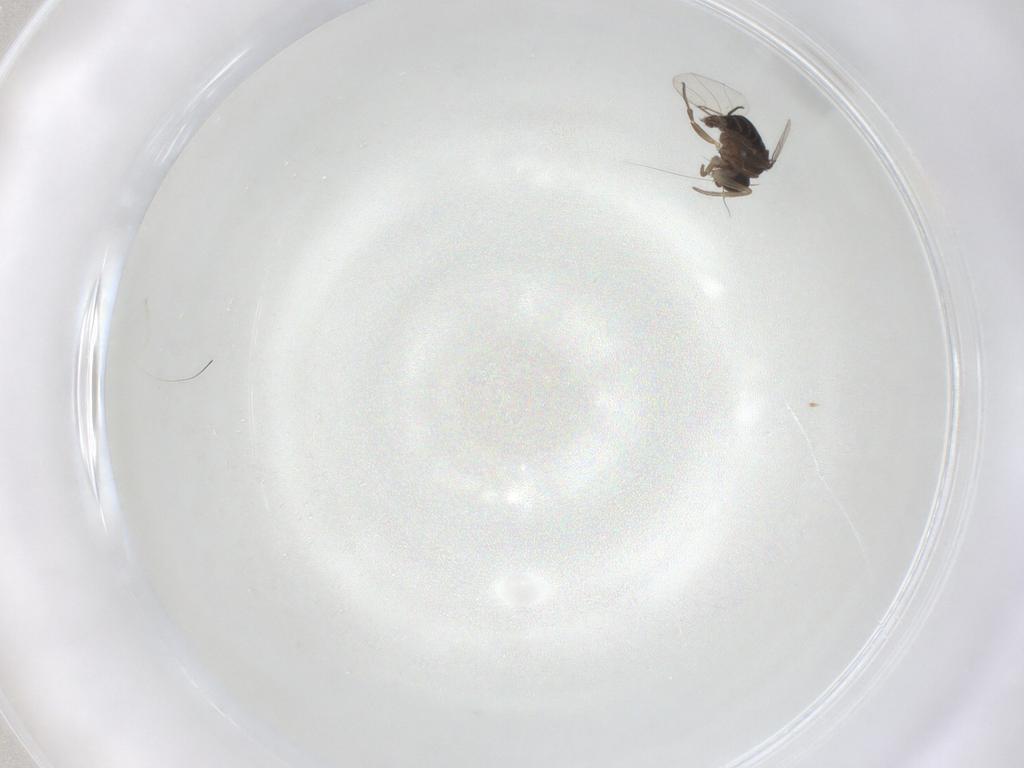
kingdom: Animalia
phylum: Arthropoda
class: Insecta
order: Diptera
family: Phoridae
